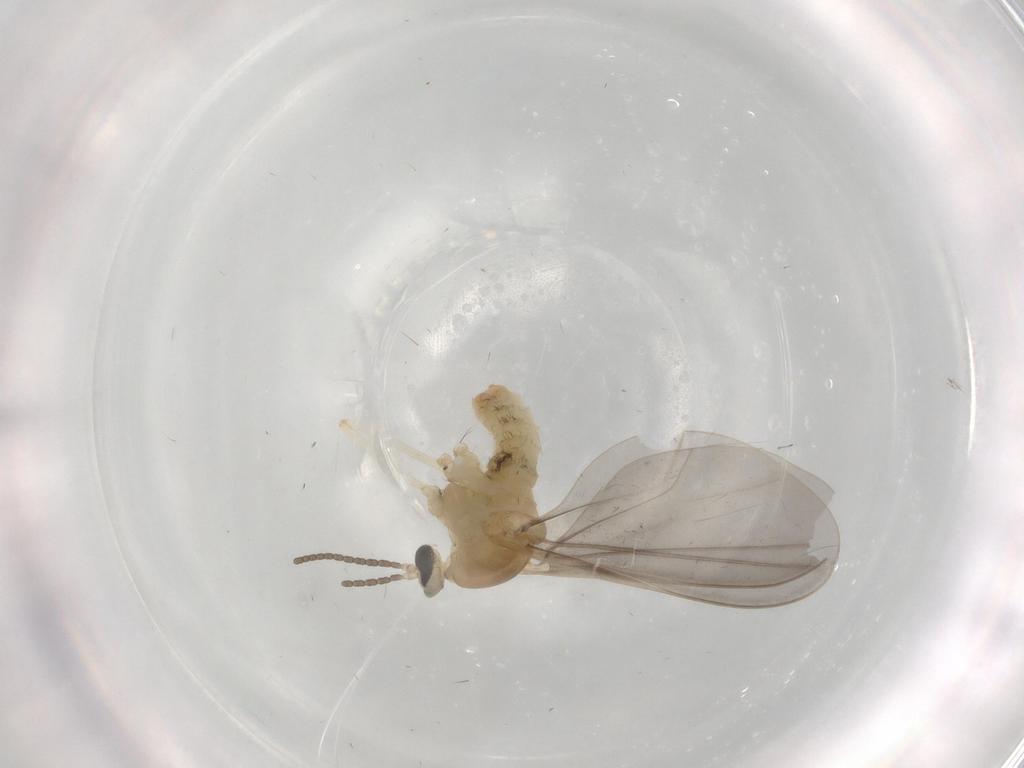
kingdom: Animalia
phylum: Arthropoda
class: Insecta
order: Diptera
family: Cecidomyiidae
